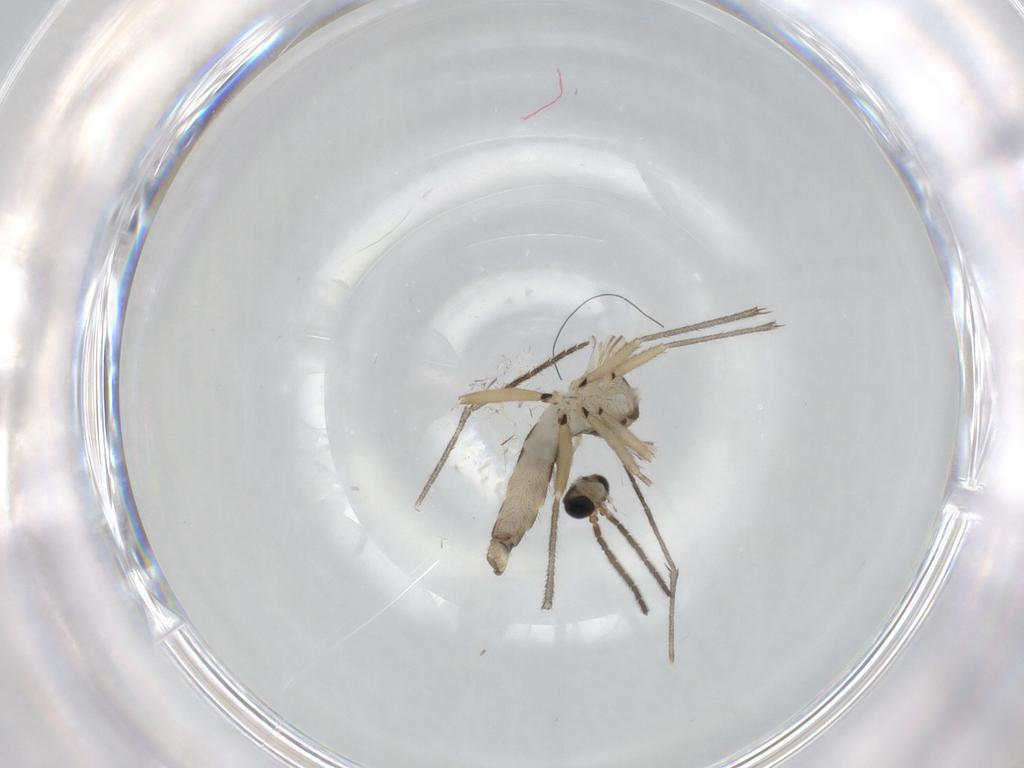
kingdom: Animalia
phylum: Arthropoda
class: Insecta
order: Diptera
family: Sciaridae
